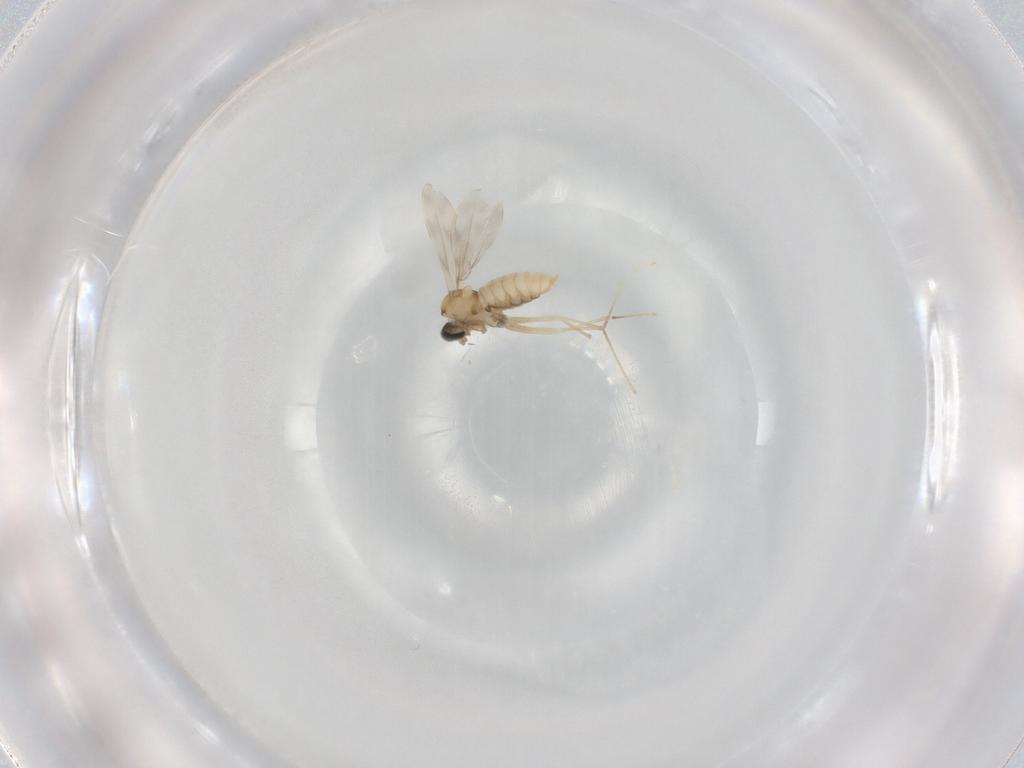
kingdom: Animalia
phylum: Arthropoda
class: Insecta
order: Diptera
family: Cecidomyiidae
